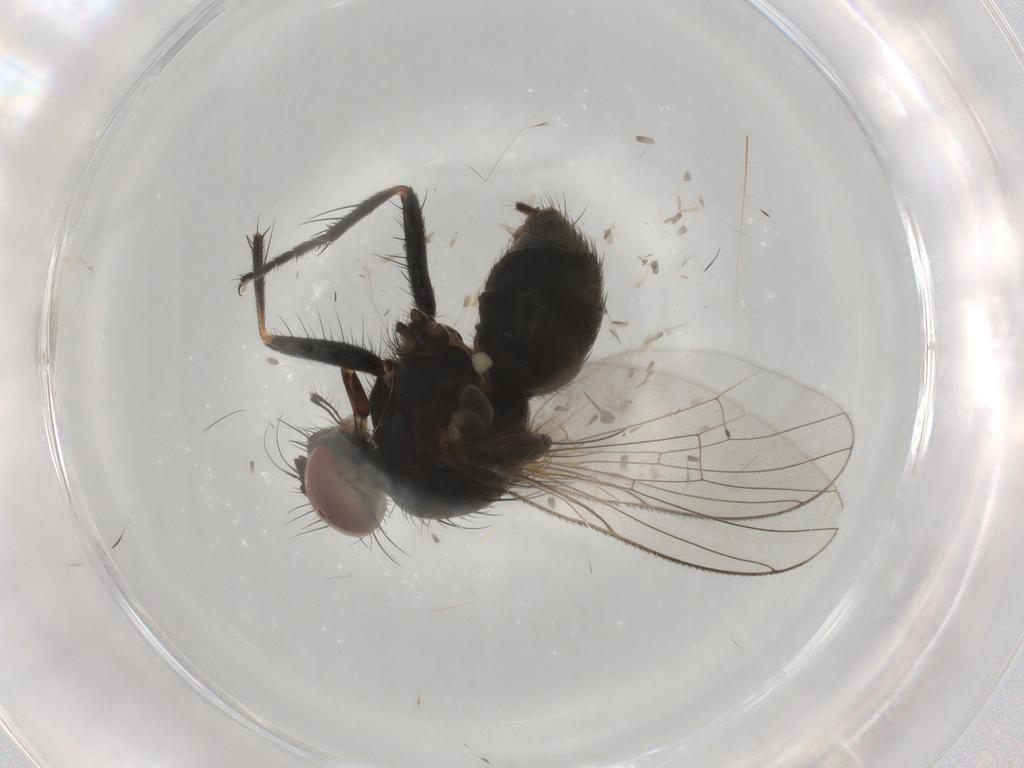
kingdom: Animalia
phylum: Arthropoda
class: Insecta
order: Diptera
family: Muscidae
